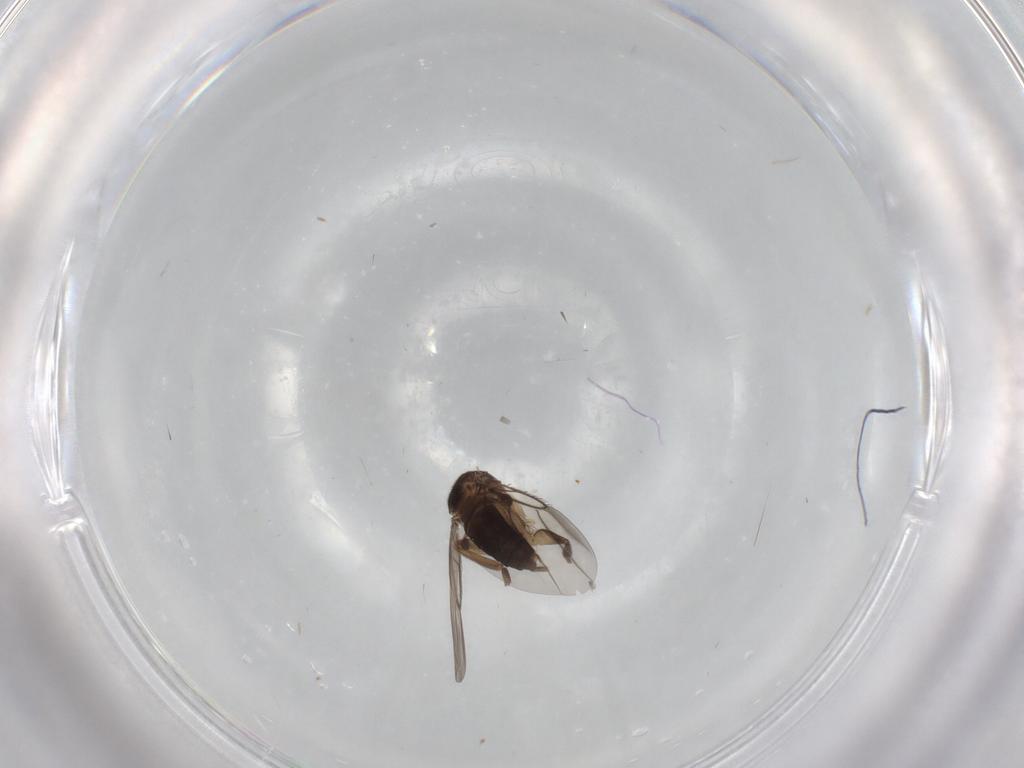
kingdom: Animalia
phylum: Arthropoda
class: Insecta
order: Diptera
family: Phoridae
